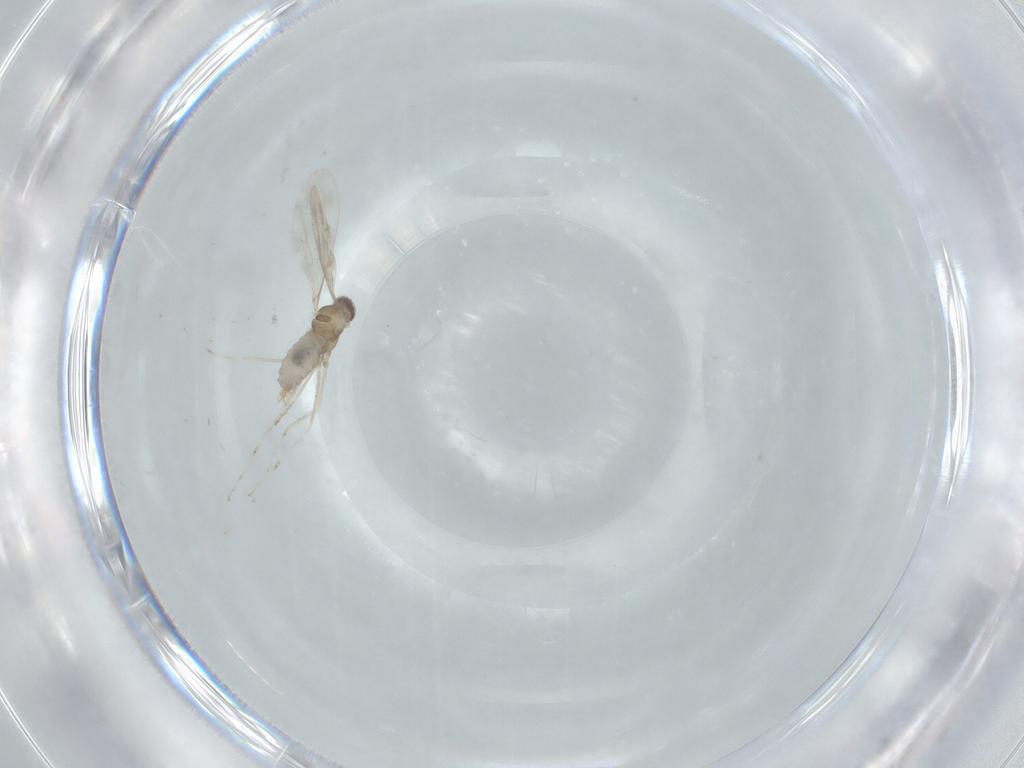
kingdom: Animalia
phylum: Arthropoda
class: Insecta
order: Diptera
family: Cecidomyiidae
